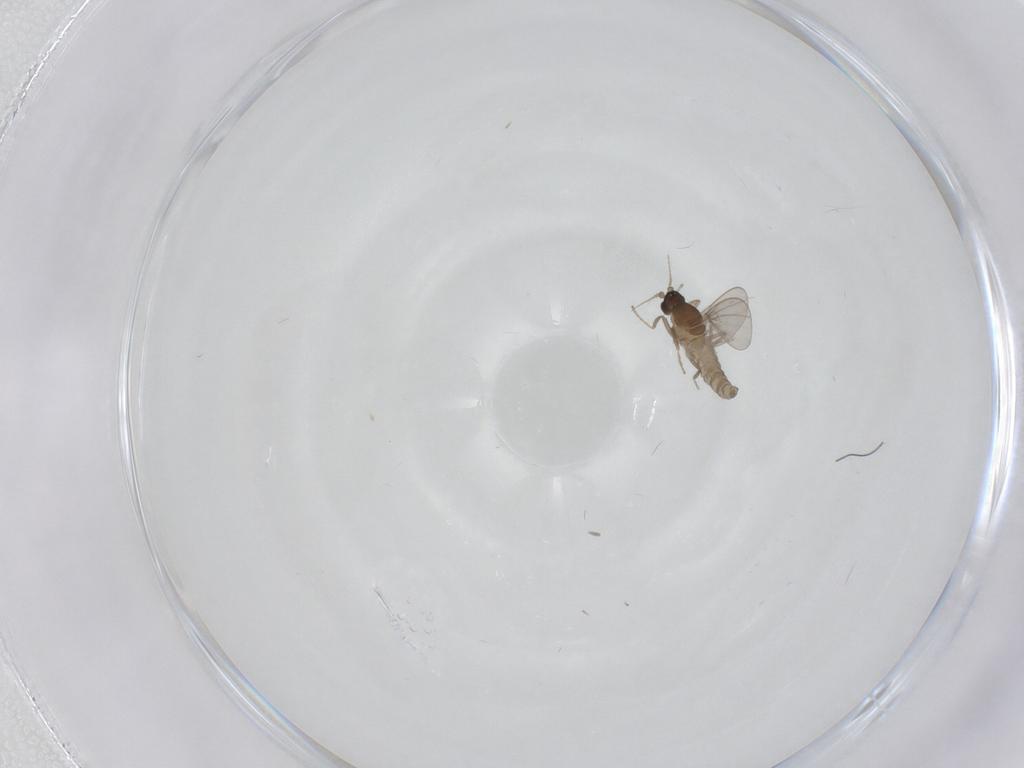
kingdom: Animalia
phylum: Arthropoda
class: Insecta
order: Diptera
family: Cecidomyiidae
